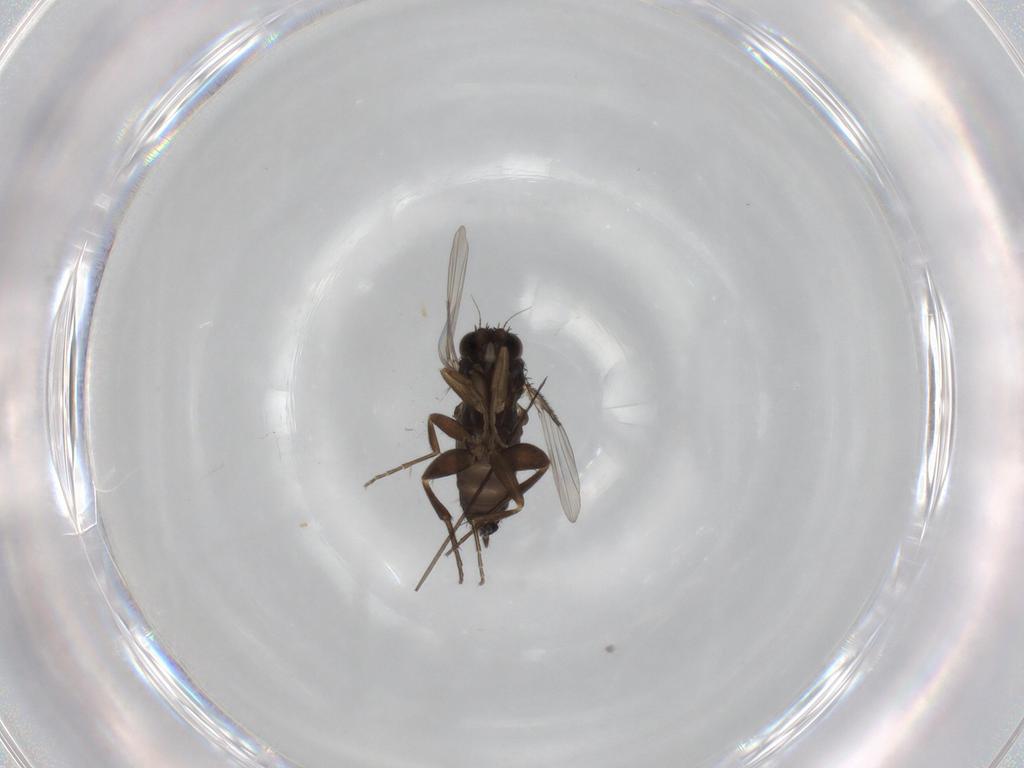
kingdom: Animalia
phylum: Arthropoda
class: Insecta
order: Diptera
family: Phoridae
